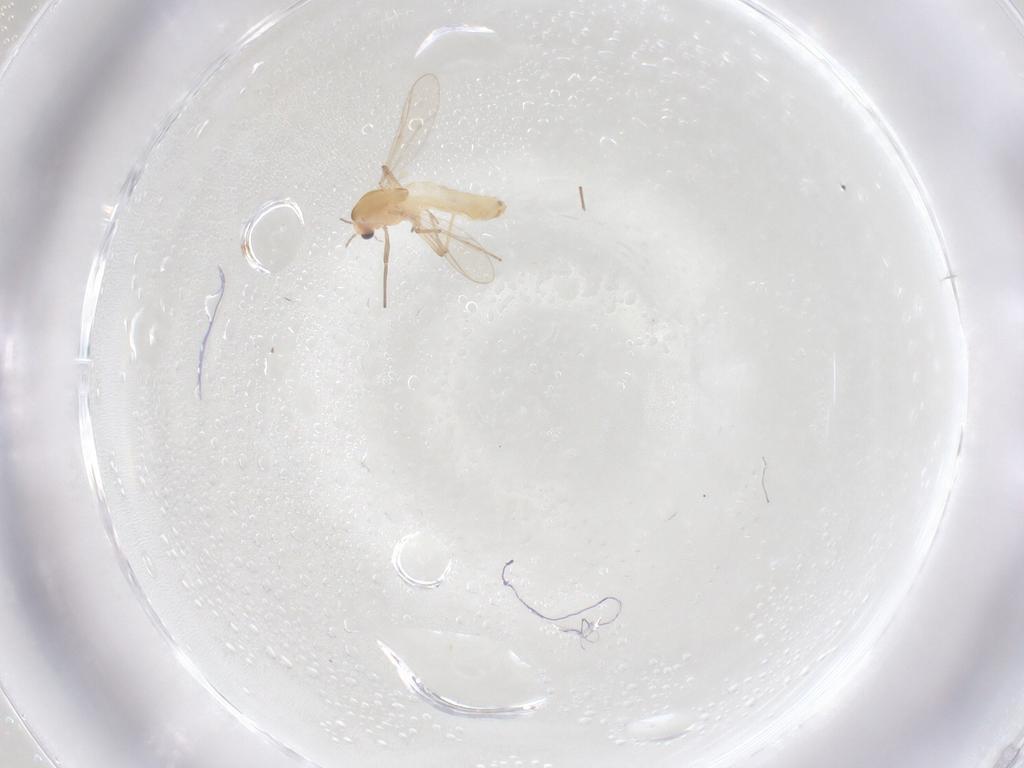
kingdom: Animalia
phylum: Arthropoda
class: Insecta
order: Diptera
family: Chironomidae
